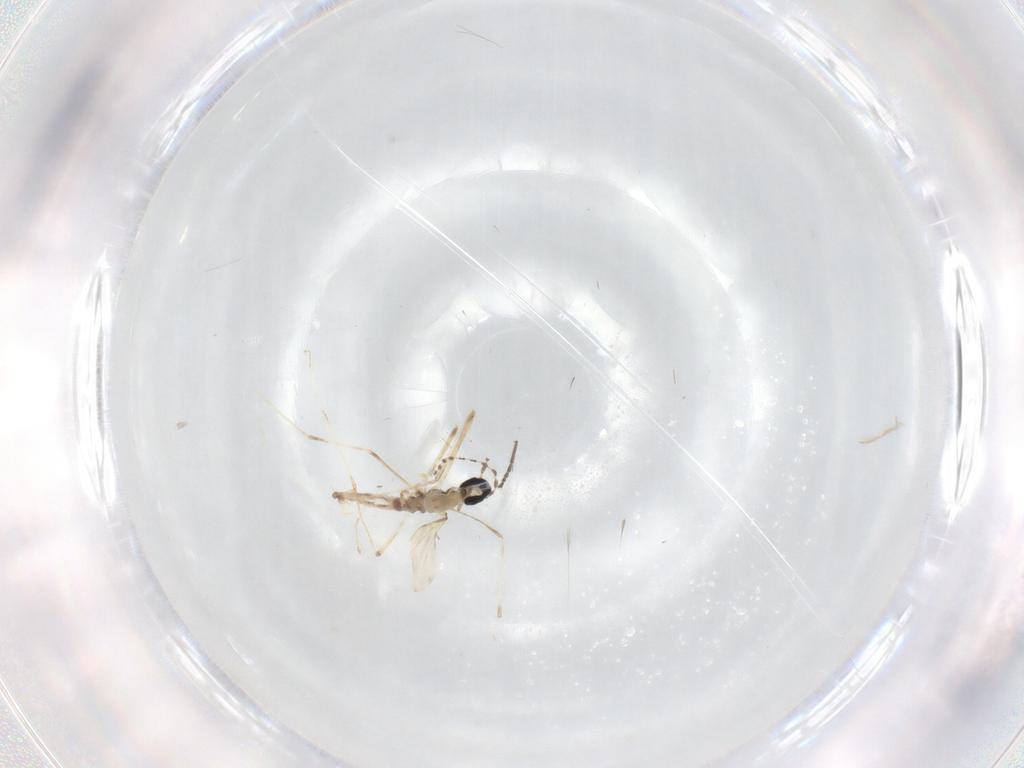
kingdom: Animalia
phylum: Arthropoda
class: Insecta
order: Diptera
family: Cecidomyiidae
